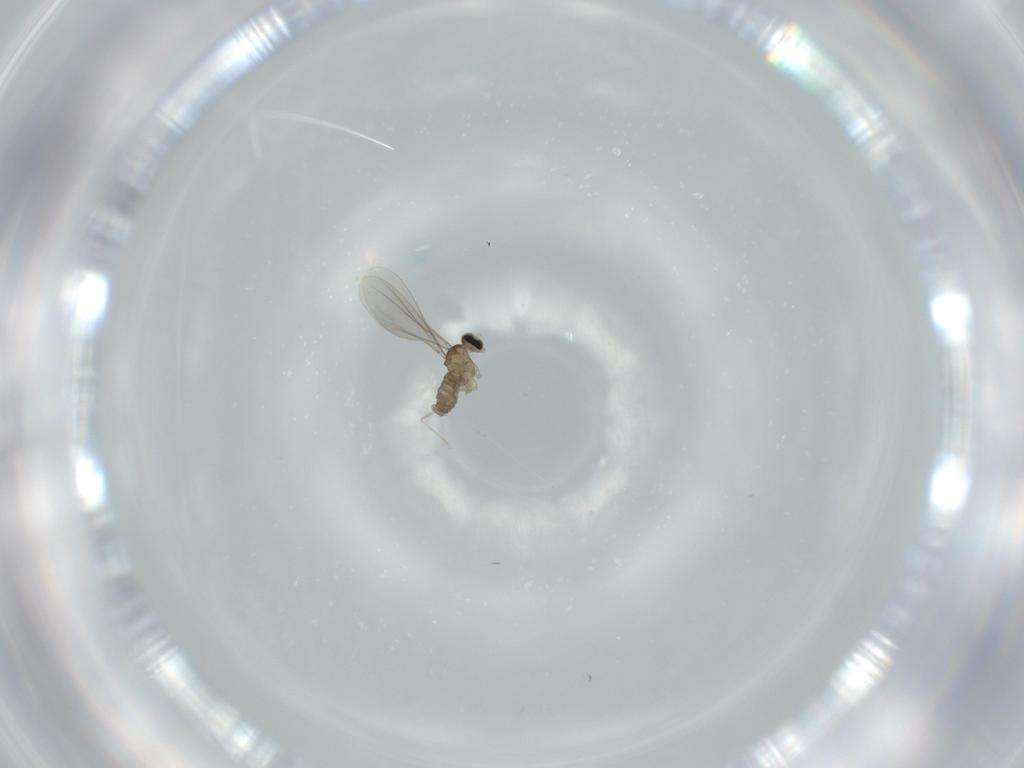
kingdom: Animalia
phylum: Arthropoda
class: Insecta
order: Diptera
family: Cecidomyiidae
